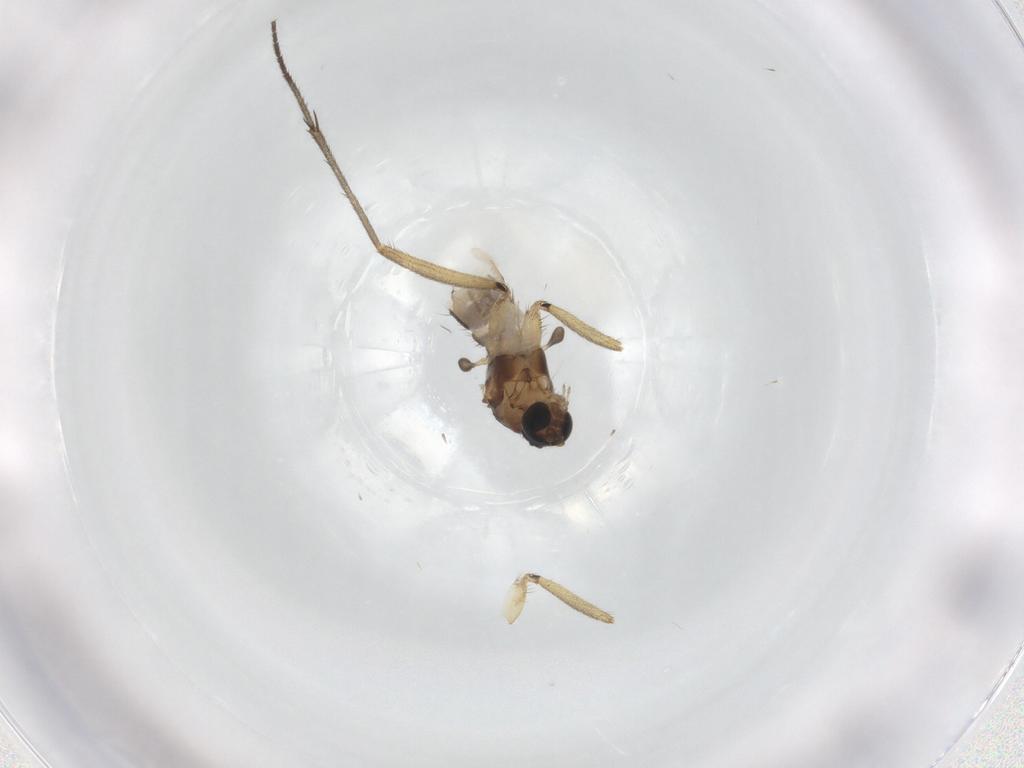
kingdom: Animalia
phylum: Arthropoda
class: Insecta
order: Diptera
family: Sciaridae
